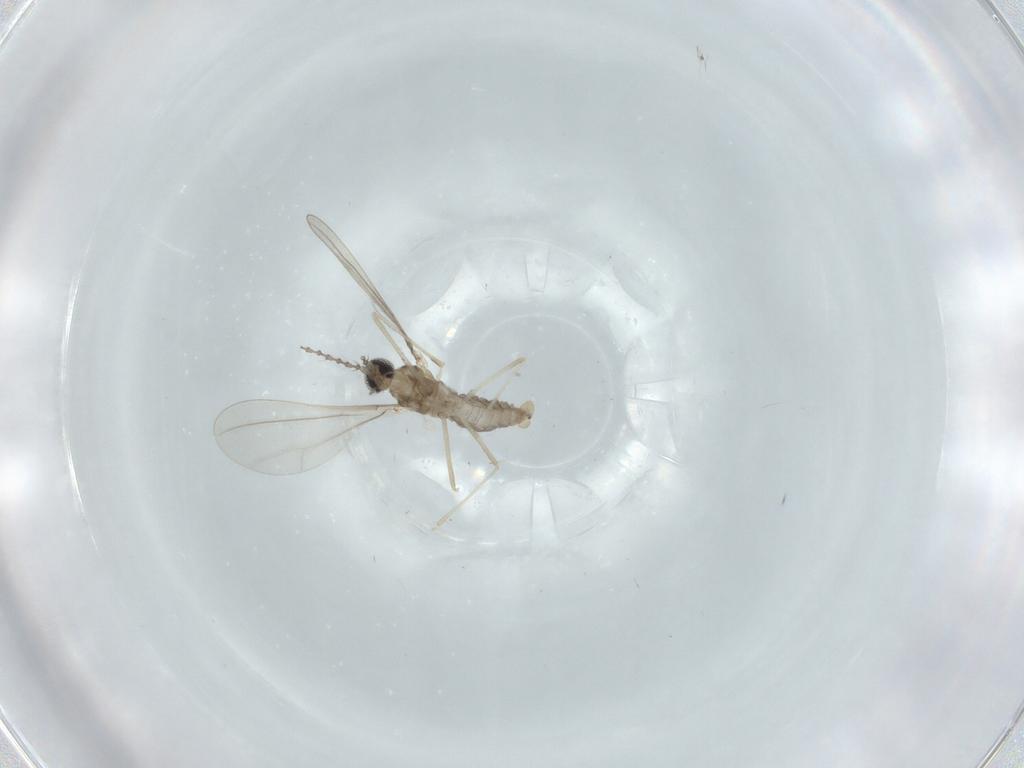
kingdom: Animalia
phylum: Arthropoda
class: Insecta
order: Diptera
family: Cecidomyiidae
